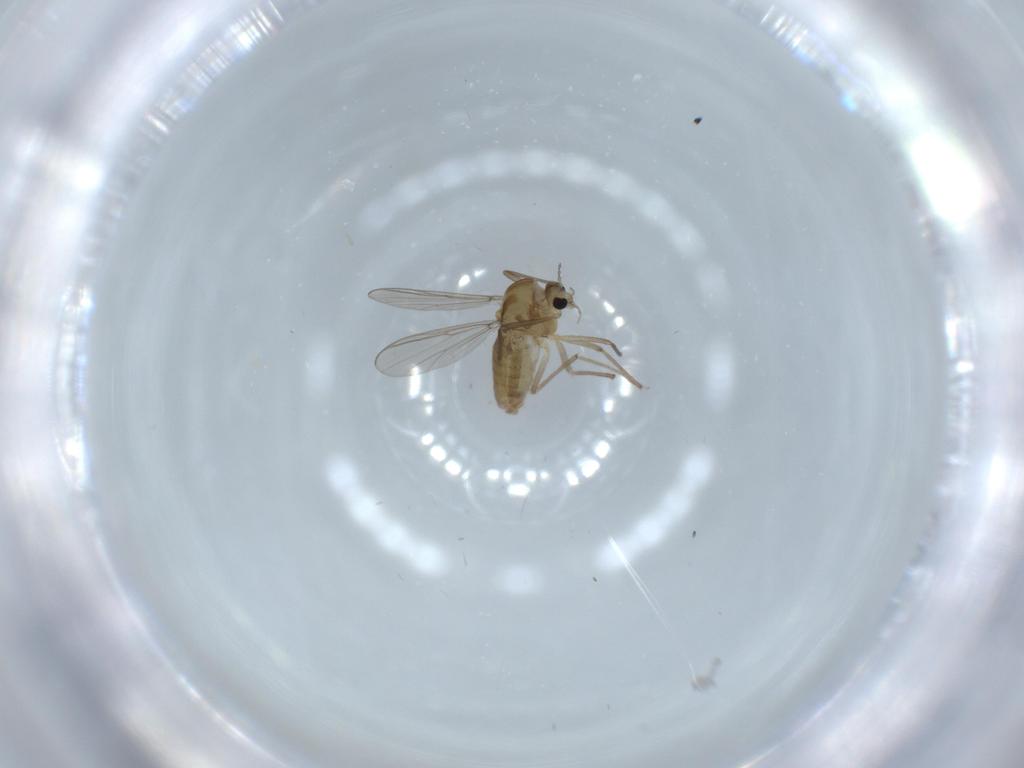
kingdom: Animalia
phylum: Arthropoda
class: Insecta
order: Diptera
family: Chironomidae
